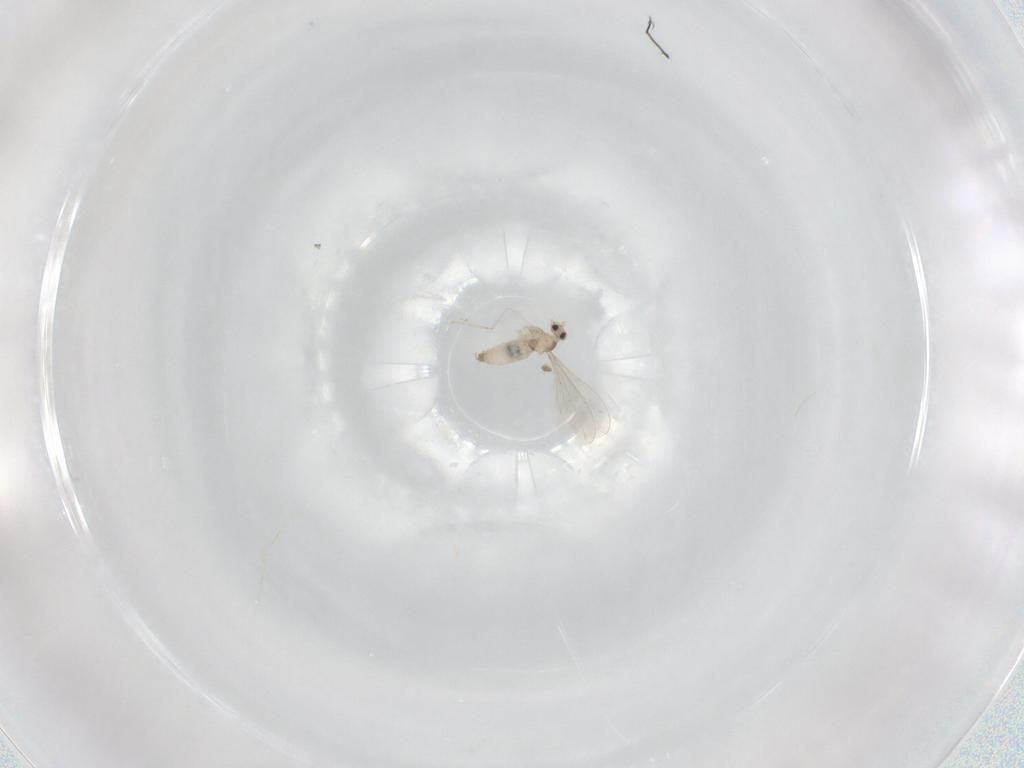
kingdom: Animalia
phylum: Arthropoda
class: Insecta
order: Diptera
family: Cecidomyiidae
